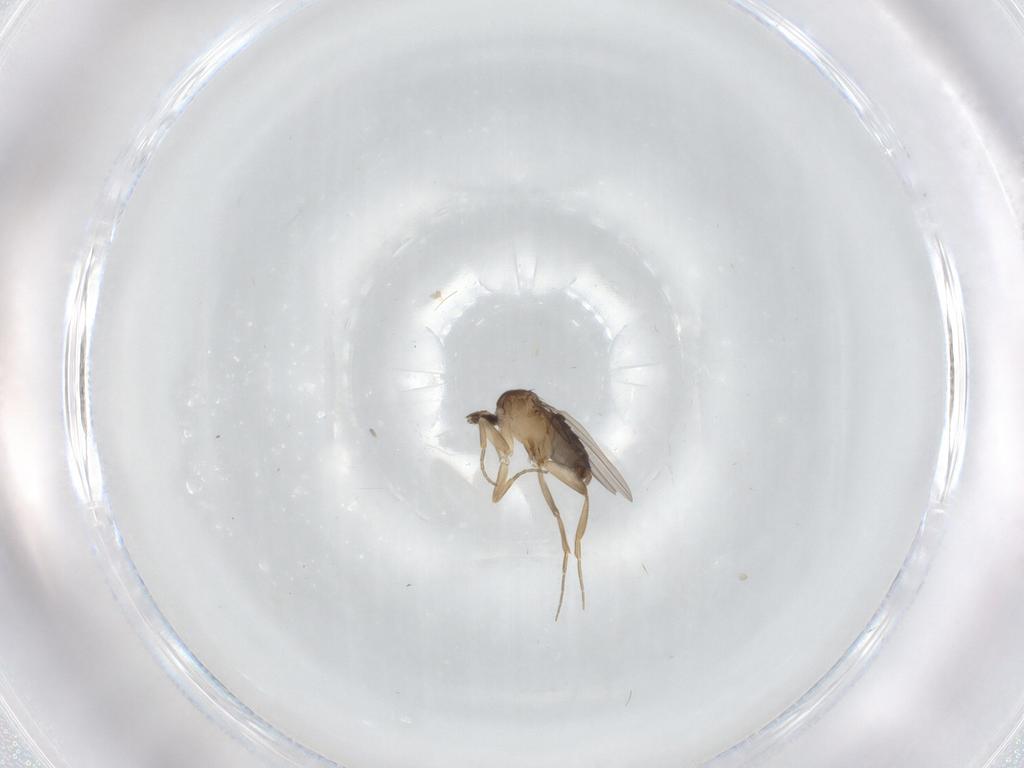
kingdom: Animalia
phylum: Arthropoda
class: Insecta
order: Diptera
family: Phoridae
